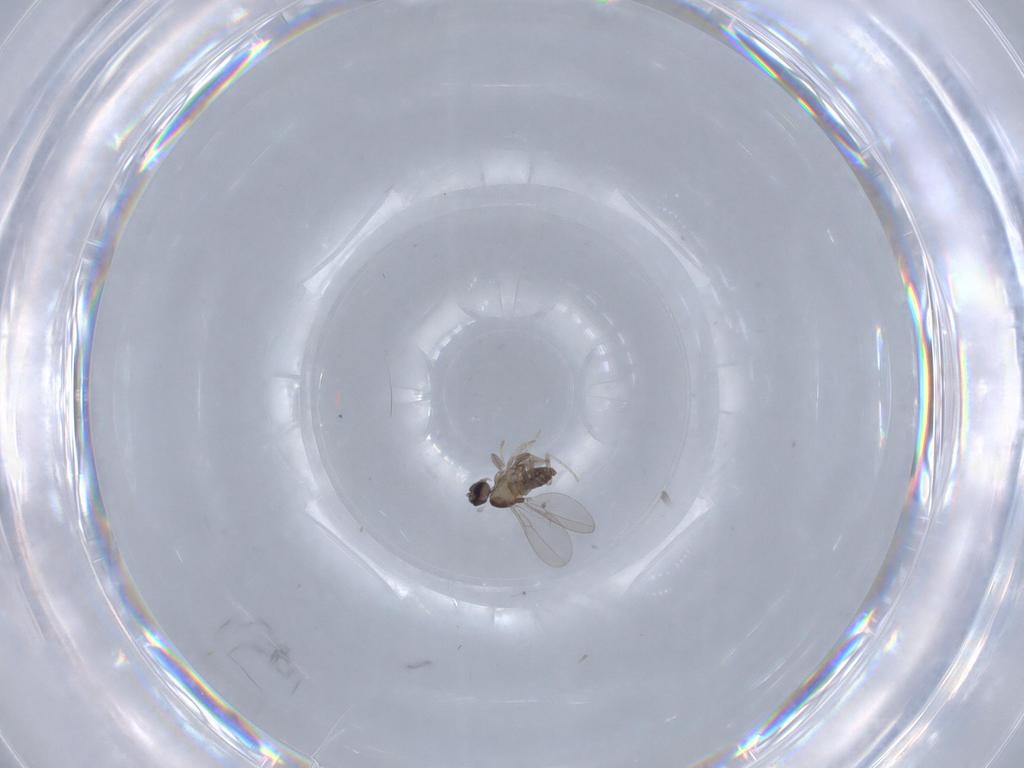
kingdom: Animalia
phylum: Arthropoda
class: Insecta
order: Diptera
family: Cecidomyiidae
